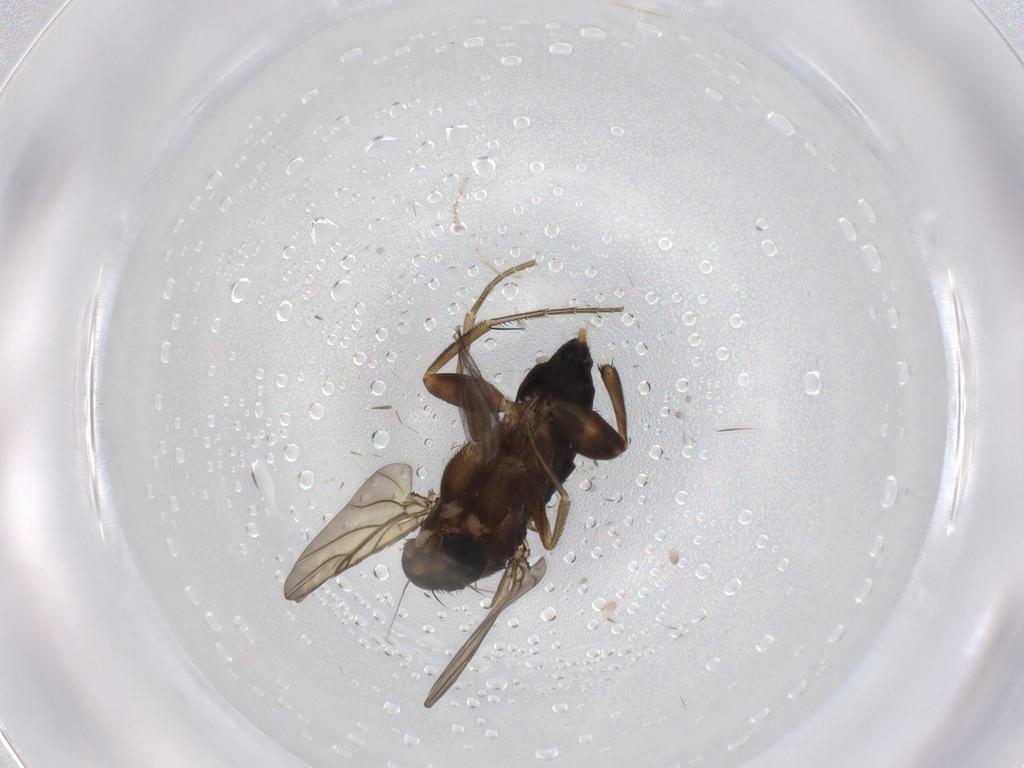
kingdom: Animalia
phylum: Arthropoda
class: Insecta
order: Diptera
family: Phoridae
